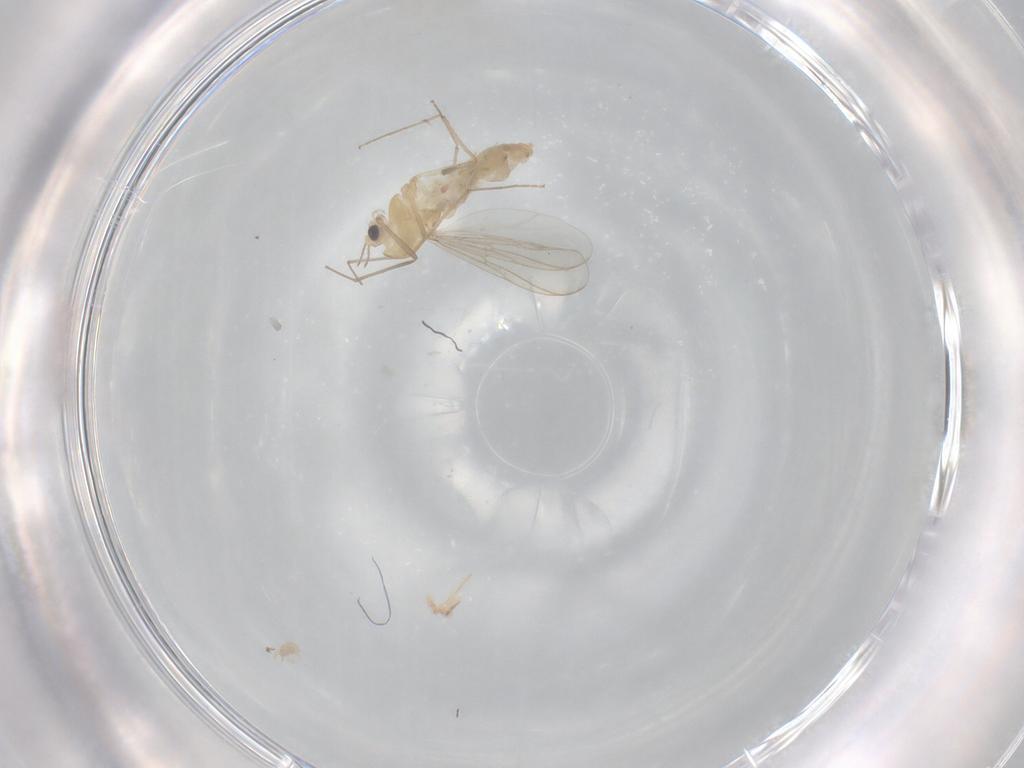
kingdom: Animalia
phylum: Arthropoda
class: Insecta
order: Diptera
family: Chironomidae
